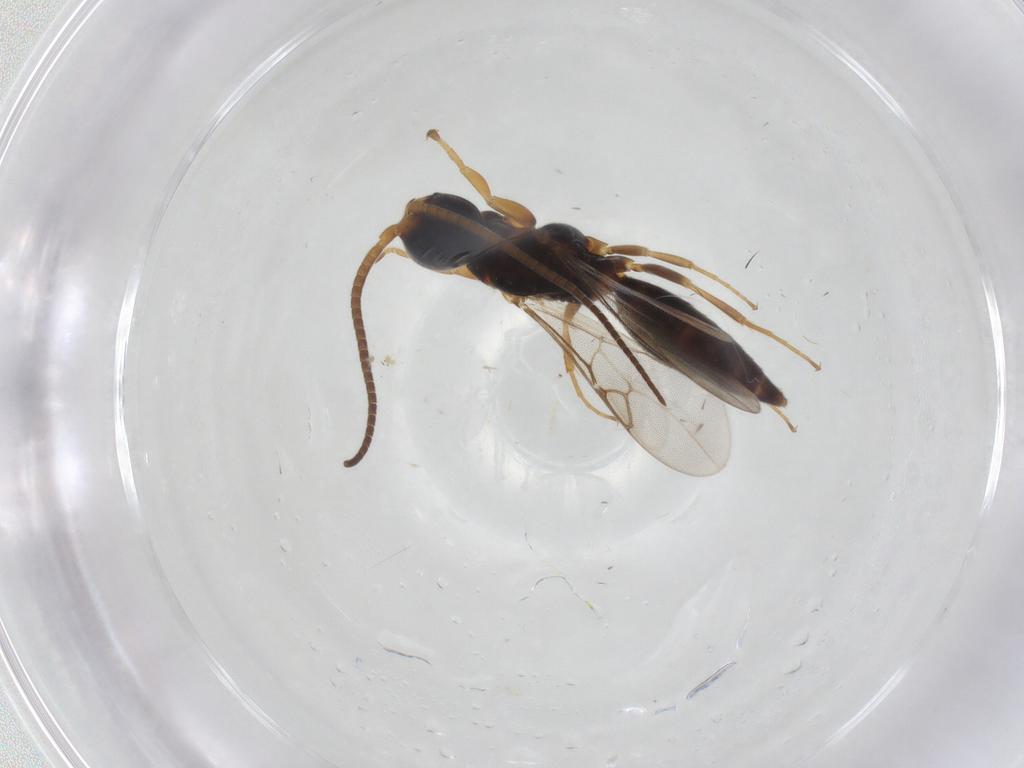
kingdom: Animalia
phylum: Arthropoda
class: Insecta
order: Hymenoptera
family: Sclerogibbidae
